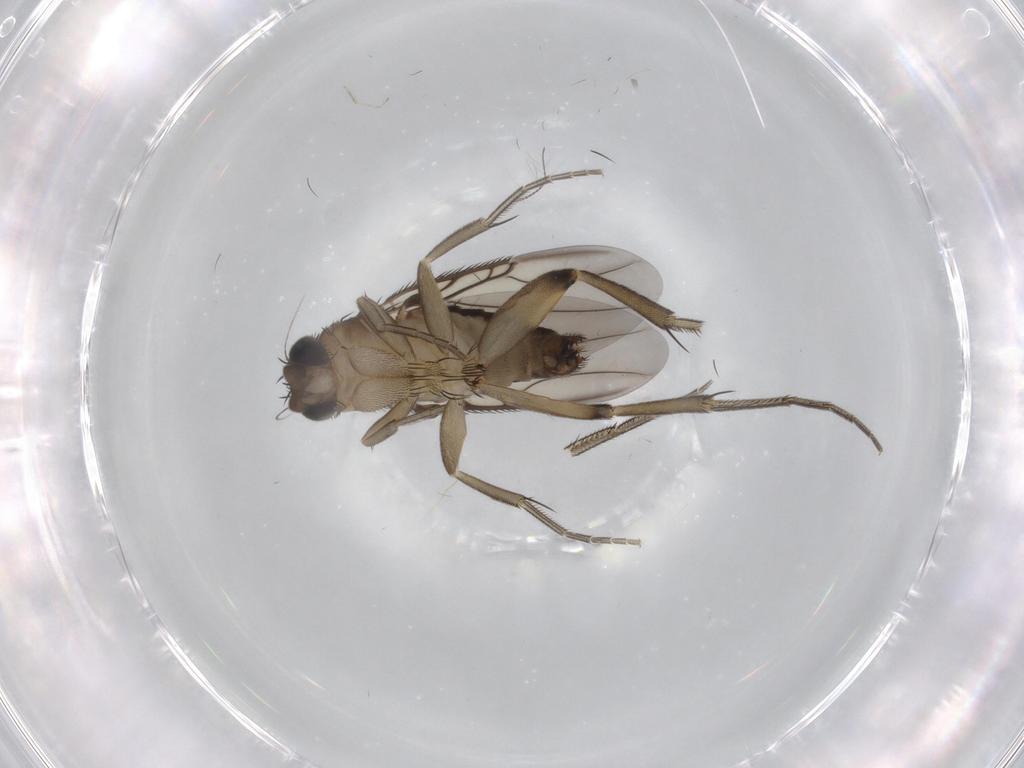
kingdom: Animalia
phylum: Arthropoda
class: Insecta
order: Diptera
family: Phoridae
